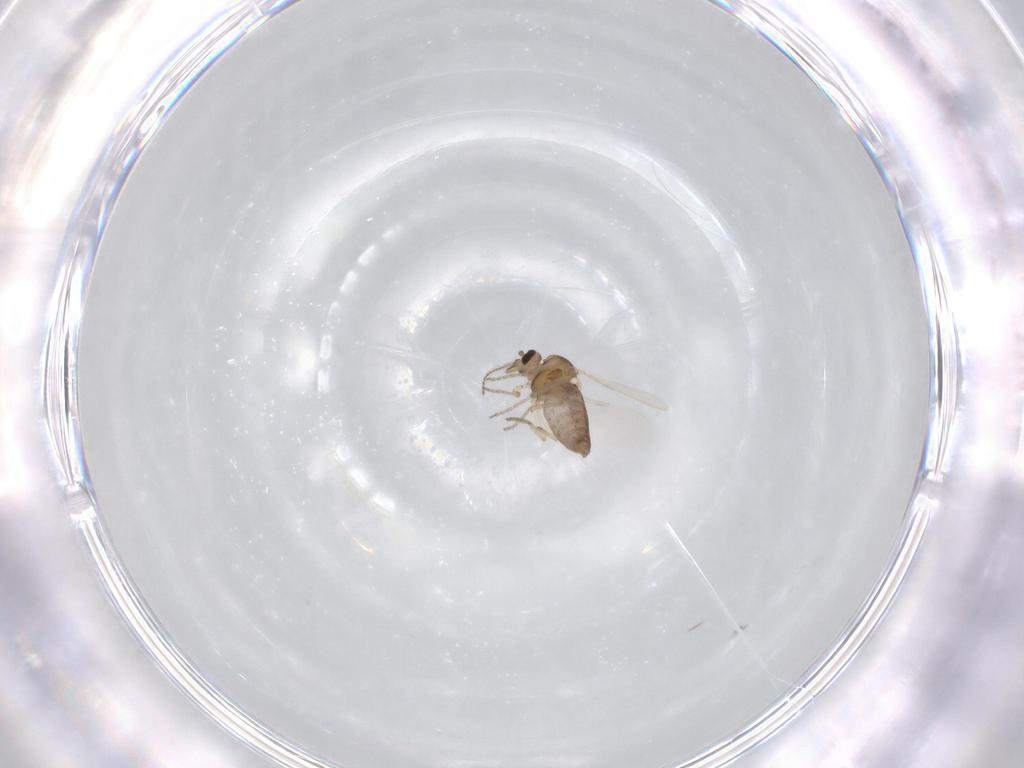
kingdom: Animalia
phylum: Arthropoda
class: Insecta
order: Diptera
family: Ceratopogonidae
